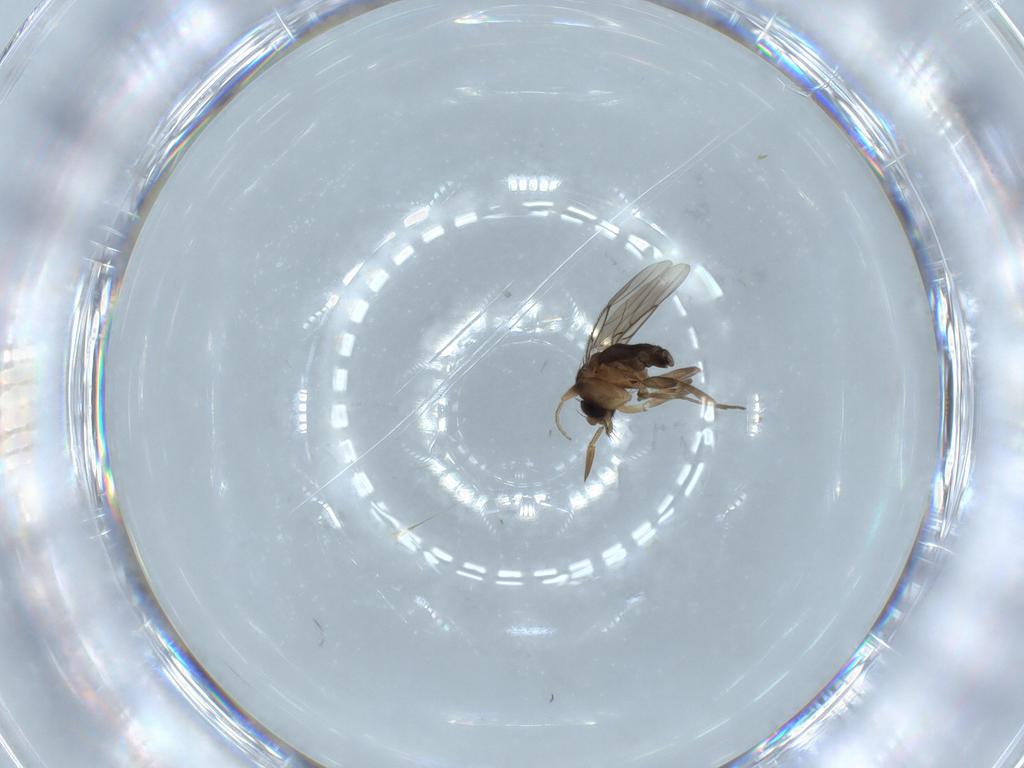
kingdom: Animalia
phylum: Arthropoda
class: Insecta
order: Diptera
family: Phoridae
